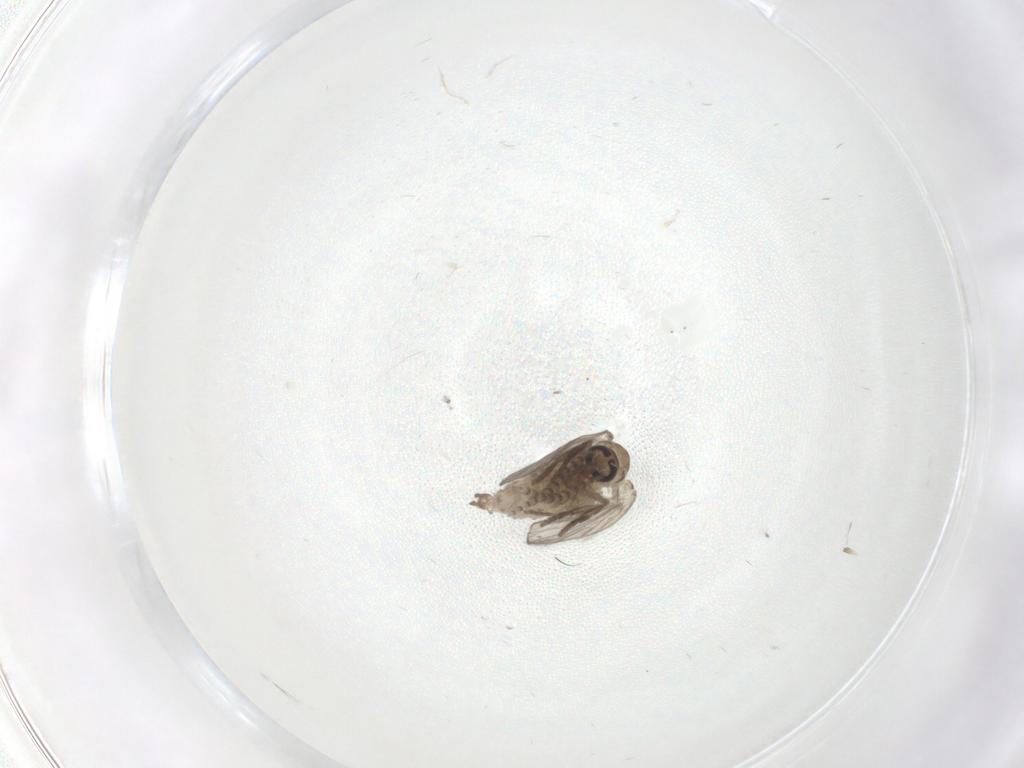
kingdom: Animalia
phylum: Arthropoda
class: Insecta
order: Diptera
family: Psychodidae
